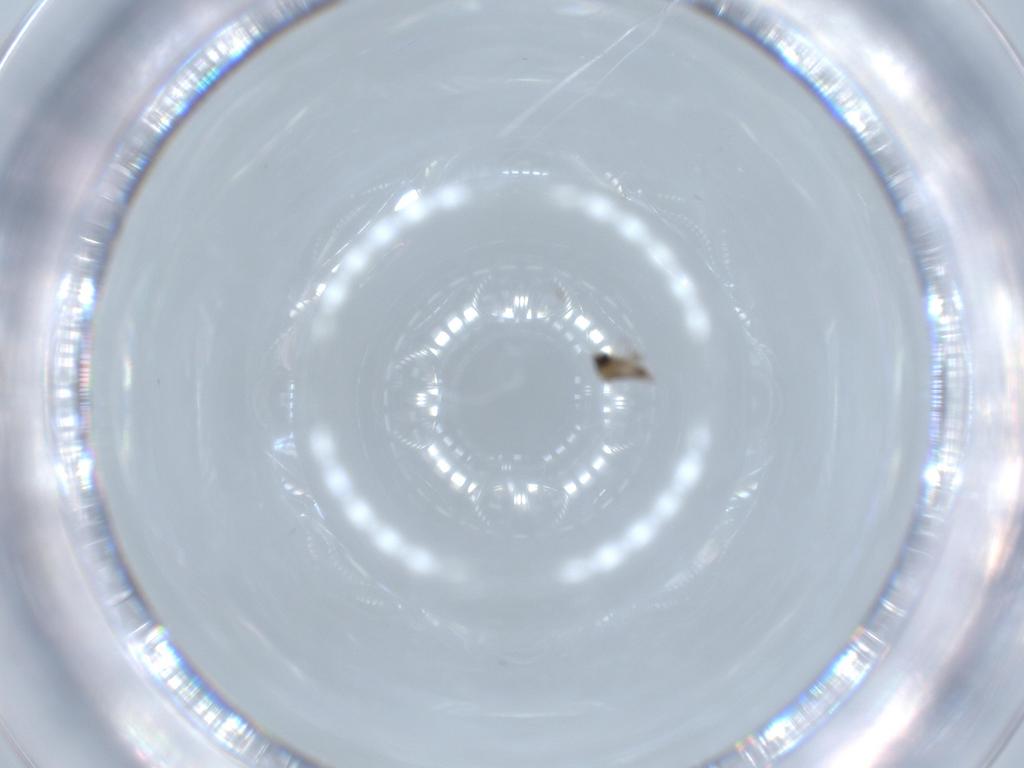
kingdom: Animalia
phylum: Arthropoda
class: Insecta
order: Diptera
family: Cecidomyiidae
